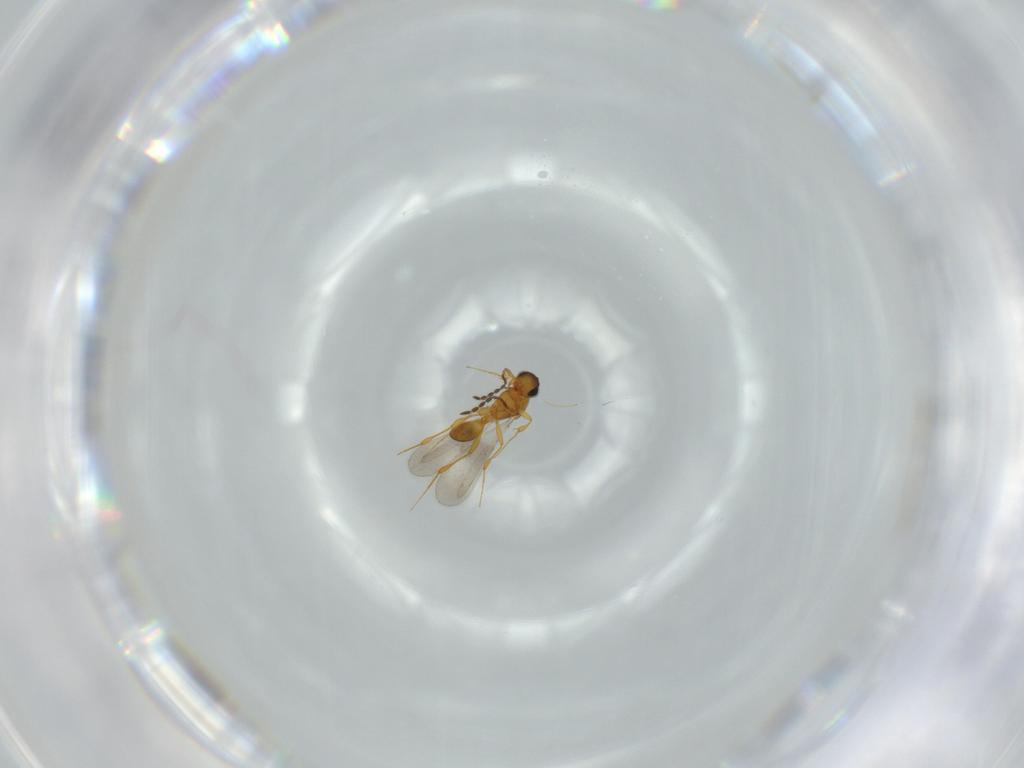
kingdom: Animalia
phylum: Arthropoda
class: Insecta
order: Hymenoptera
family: Platygastridae
